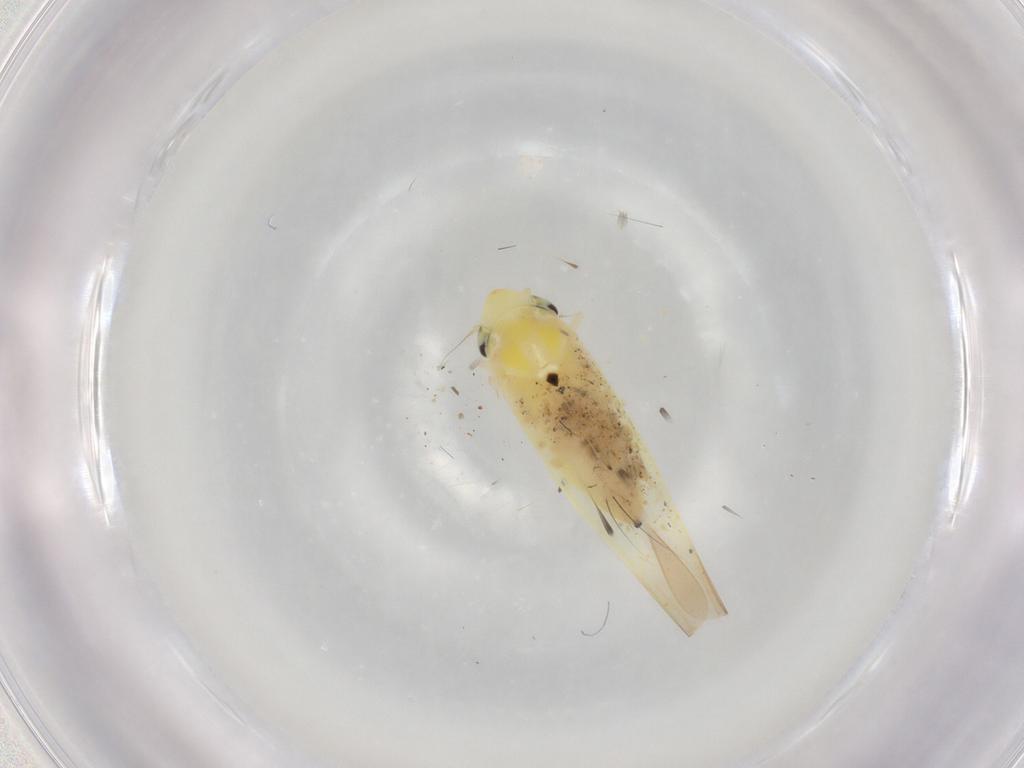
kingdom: Animalia
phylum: Arthropoda
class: Insecta
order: Hemiptera
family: Cicadellidae
